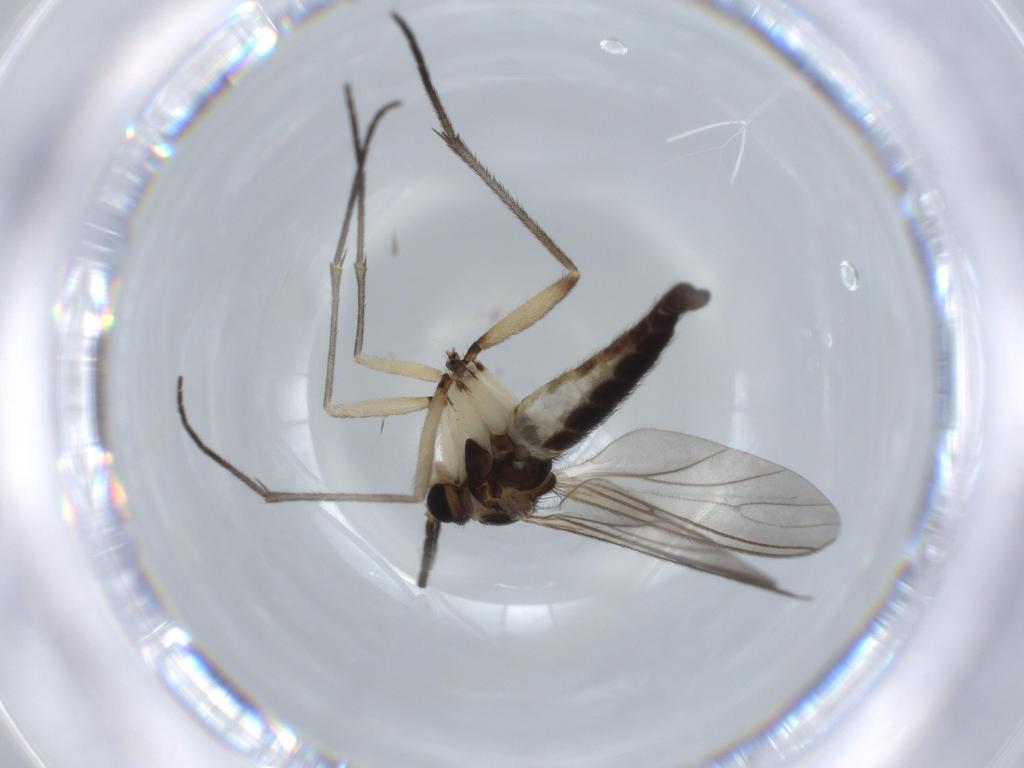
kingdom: Animalia
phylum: Arthropoda
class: Insecta
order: Diptera
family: Sciaridae
